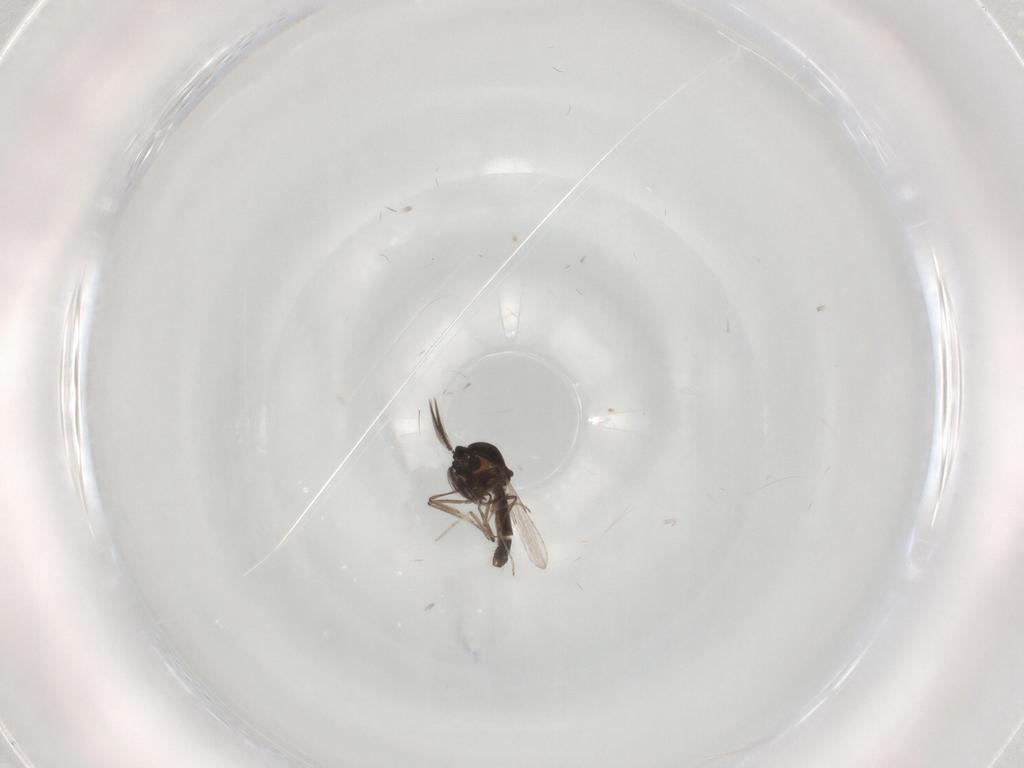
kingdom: Animalia
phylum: Arthropoda
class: Insecta
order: Diptera
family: Ceratopogonidae
